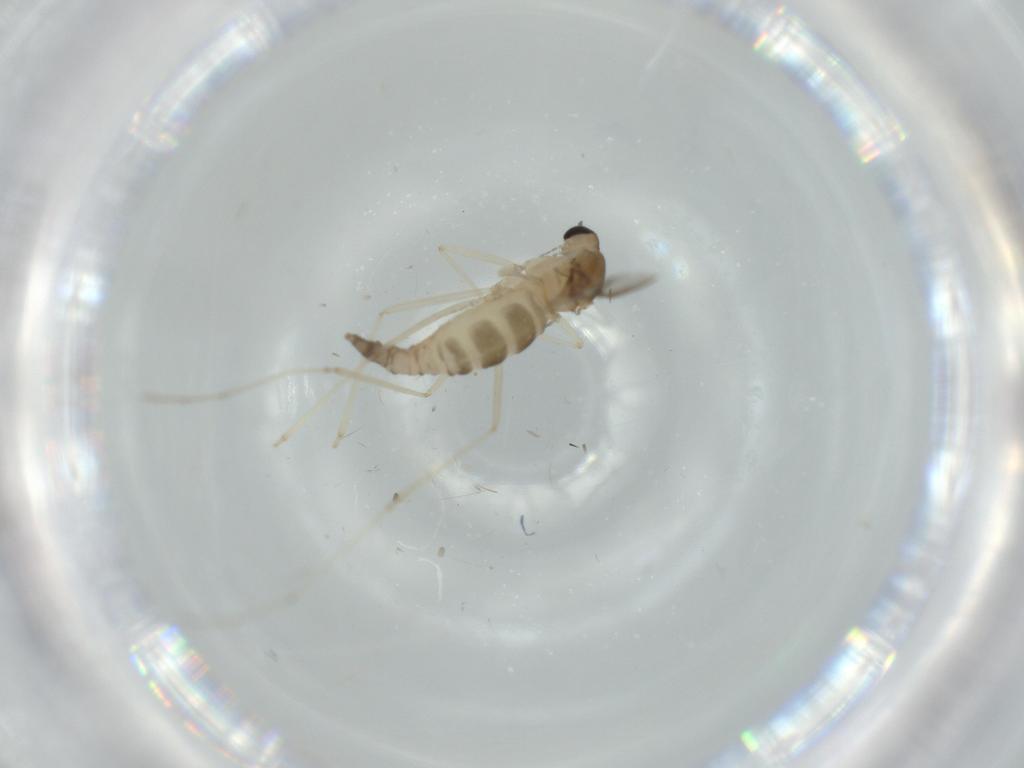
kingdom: Animalia
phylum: Arthropoda
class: Insecta
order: Diptera
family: Cecidomyiidae
